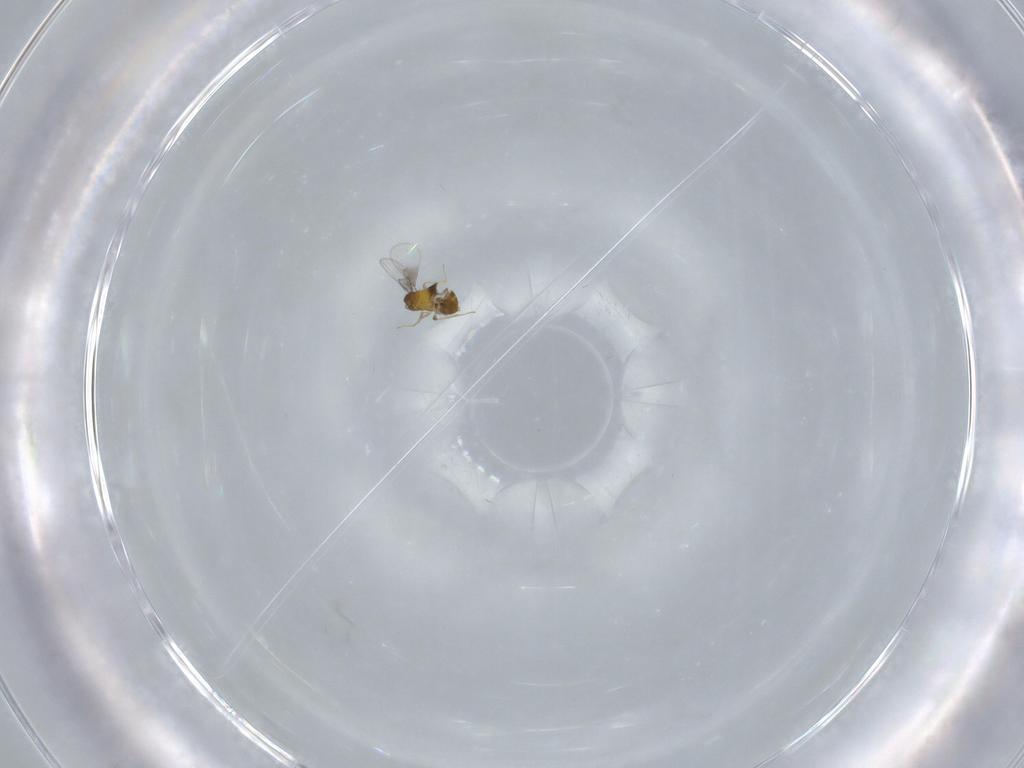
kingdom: Animalia
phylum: Arthropoda
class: Insecta
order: Hymenoptera
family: Trichogrammatidae
